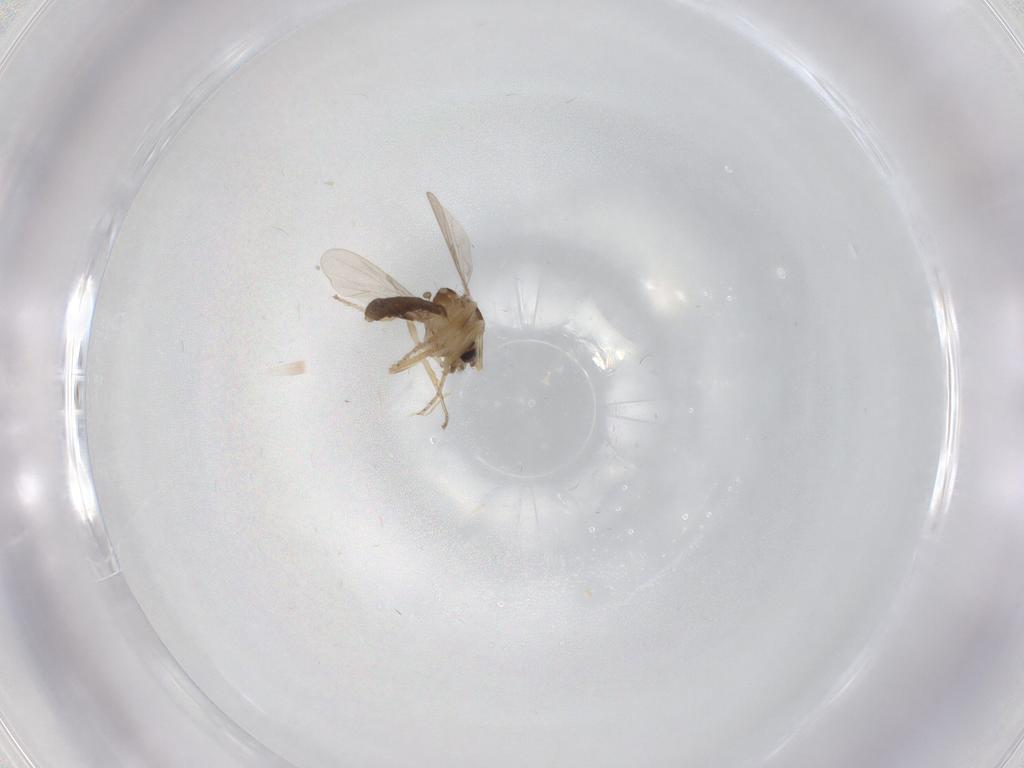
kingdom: Animalia
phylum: Arthropoda
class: Insecta
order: Diptera
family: Ceratopogonidae
